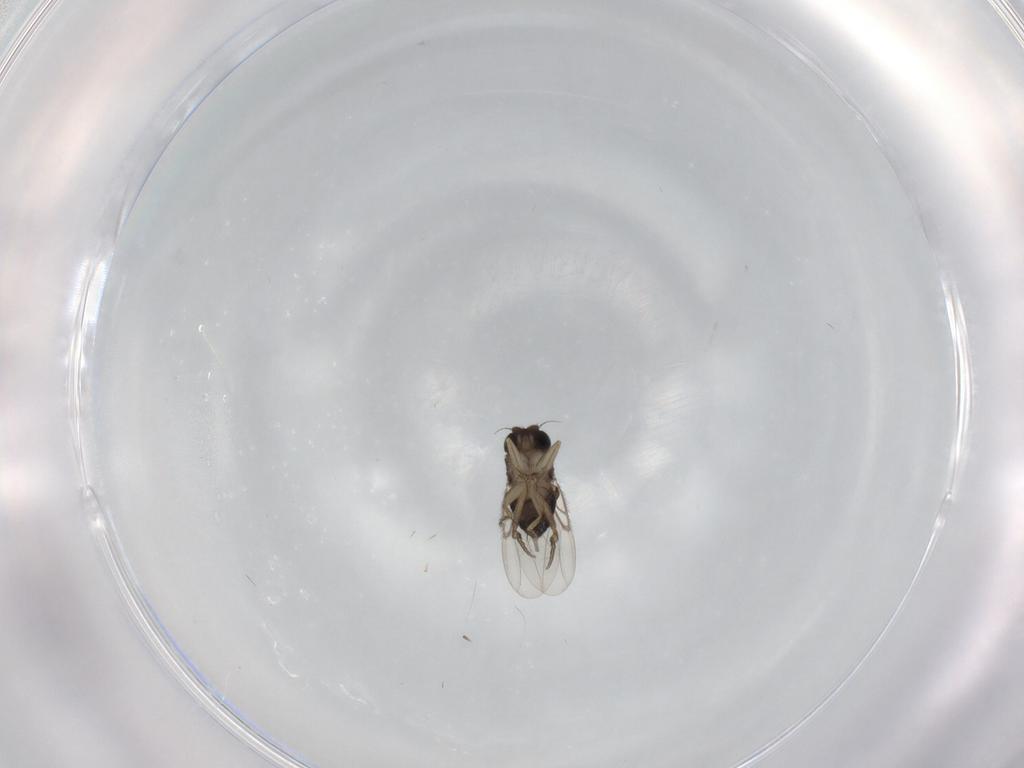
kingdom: Animalia
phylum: Arthropoda
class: Insecta
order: Diptera
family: Phoridae
